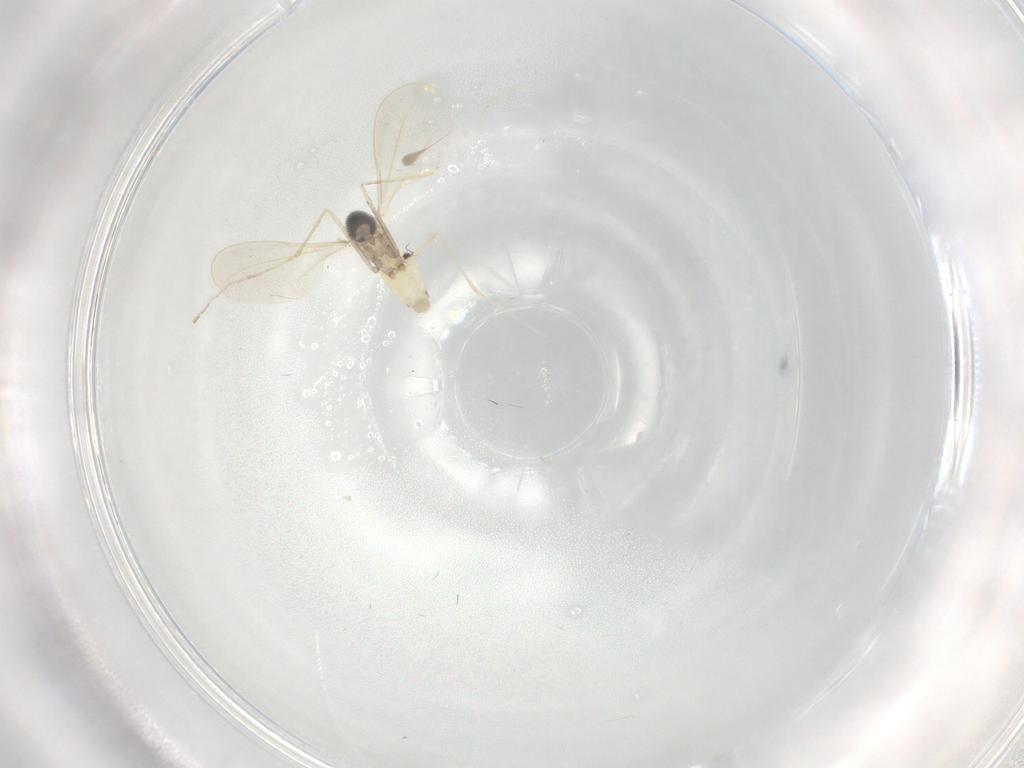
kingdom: Animalia
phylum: Arthropoda
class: Insecta
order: Diptera
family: Cecidomyiidae
